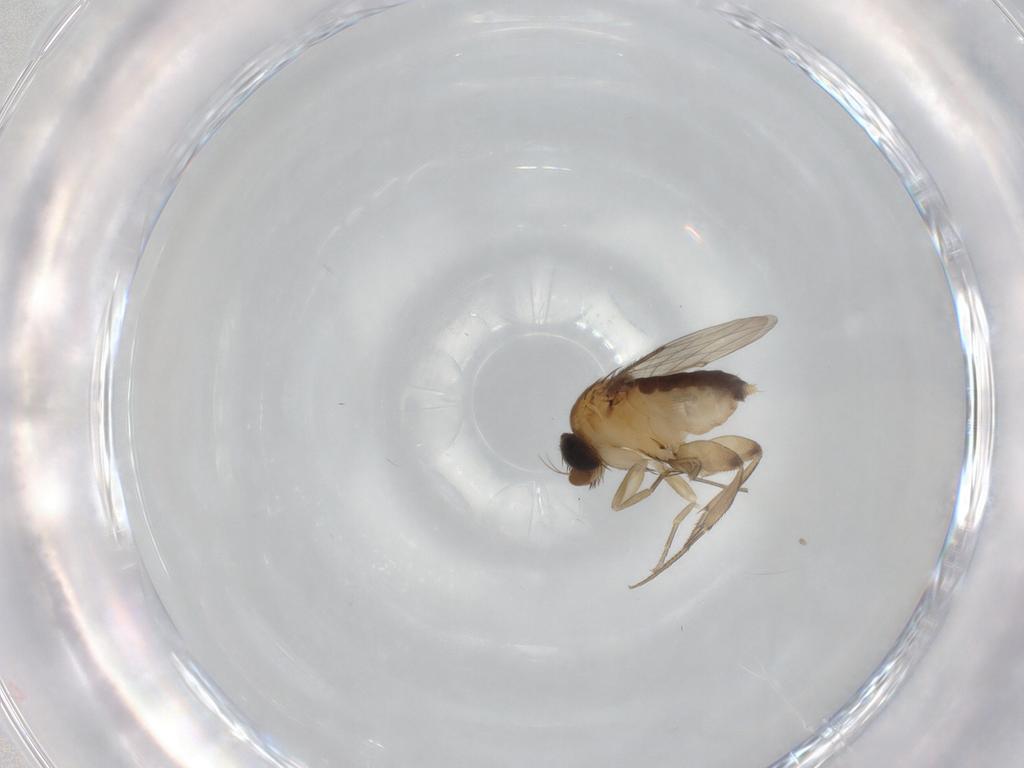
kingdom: Animalia
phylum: Arthropoda
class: Insecta
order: Diptera
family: Phoridae
